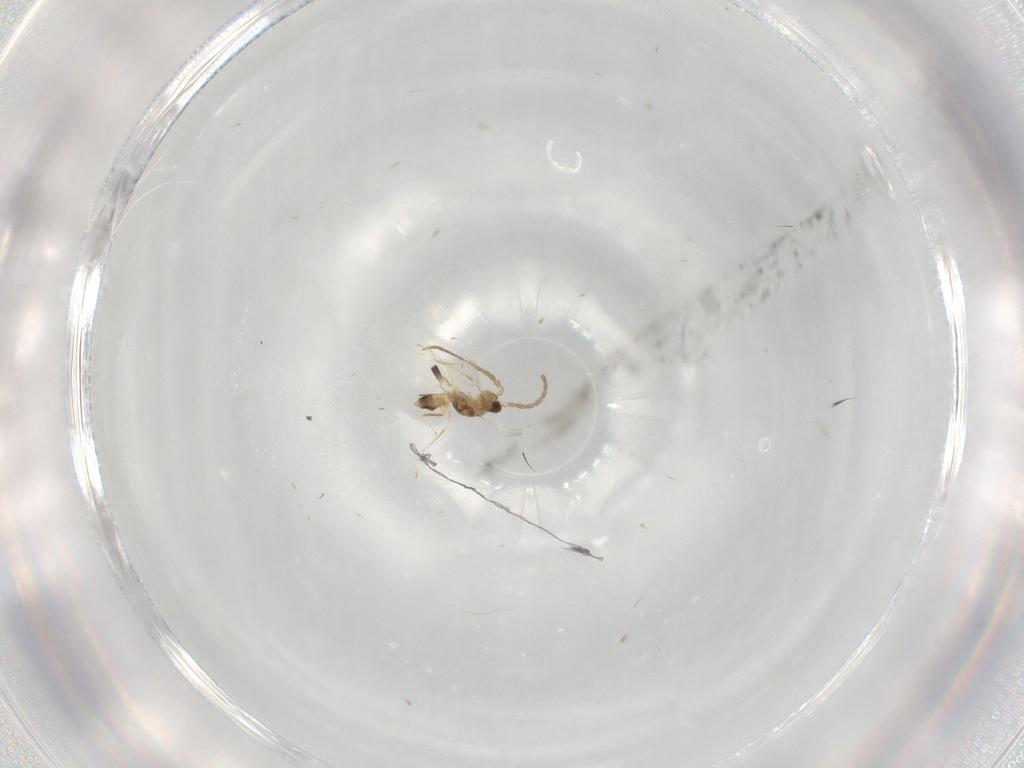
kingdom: Animalia
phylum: Arthropoda
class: Insecta
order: Hymenoptera
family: Mymaridae
